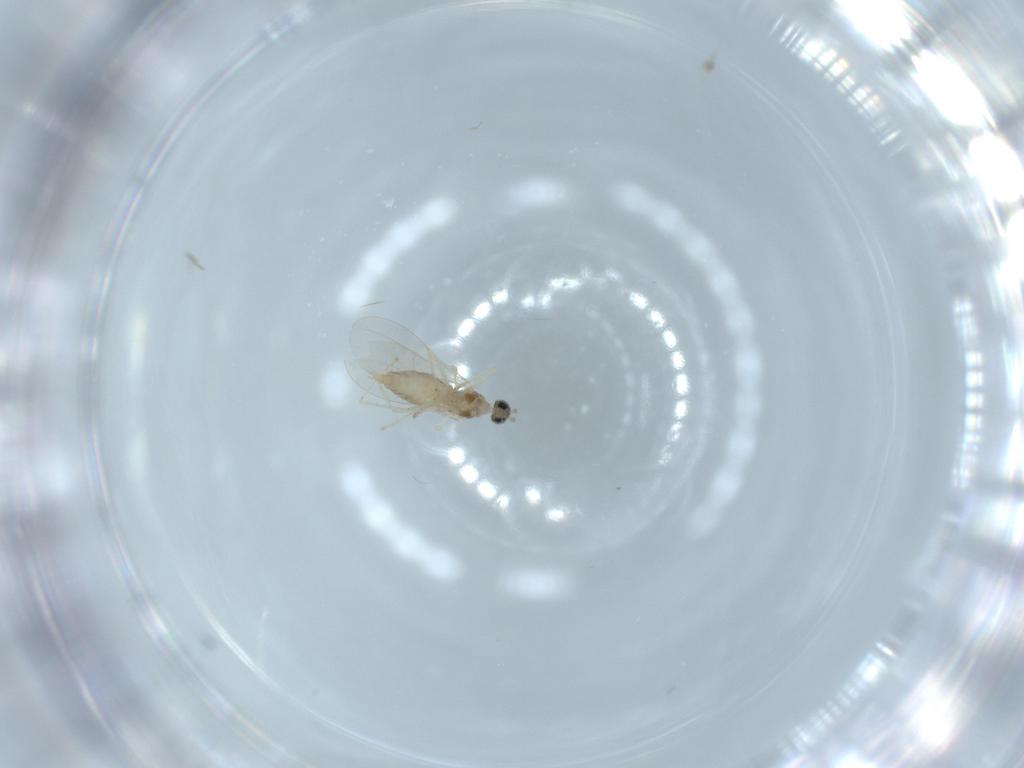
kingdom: Animalia
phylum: Arthropoda
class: Insecta
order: Diptera
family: Cecidomyiidae
